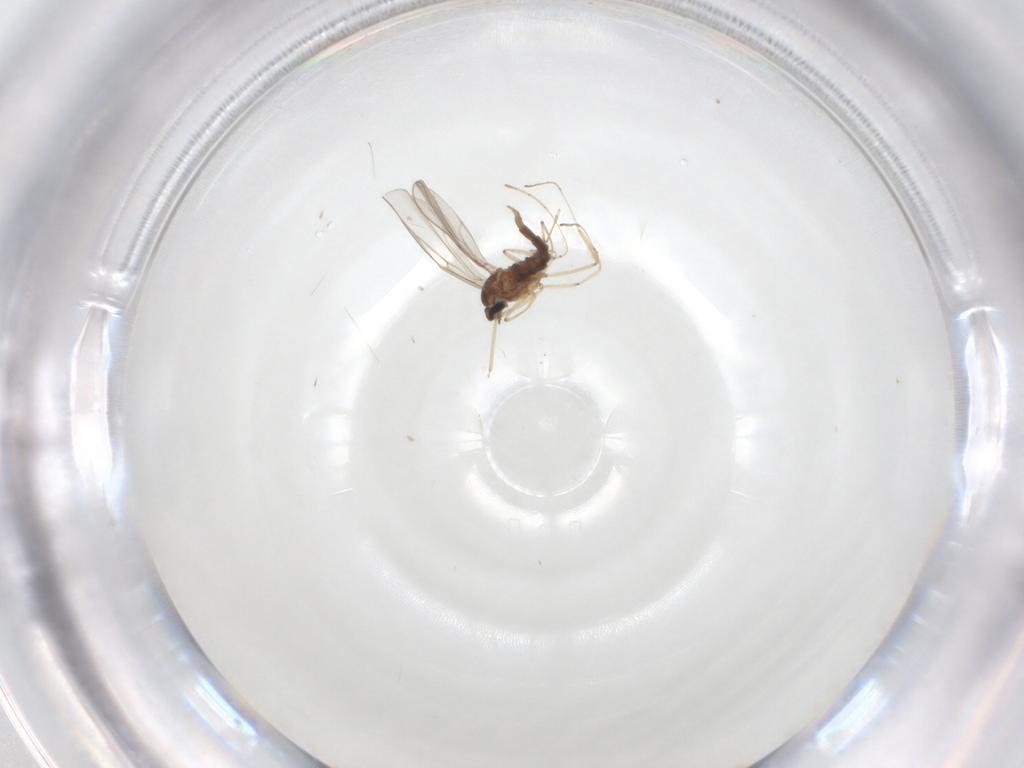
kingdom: Animalia
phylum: Arthropoda
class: Insecta
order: Diptera
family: Cecidomyiidae
